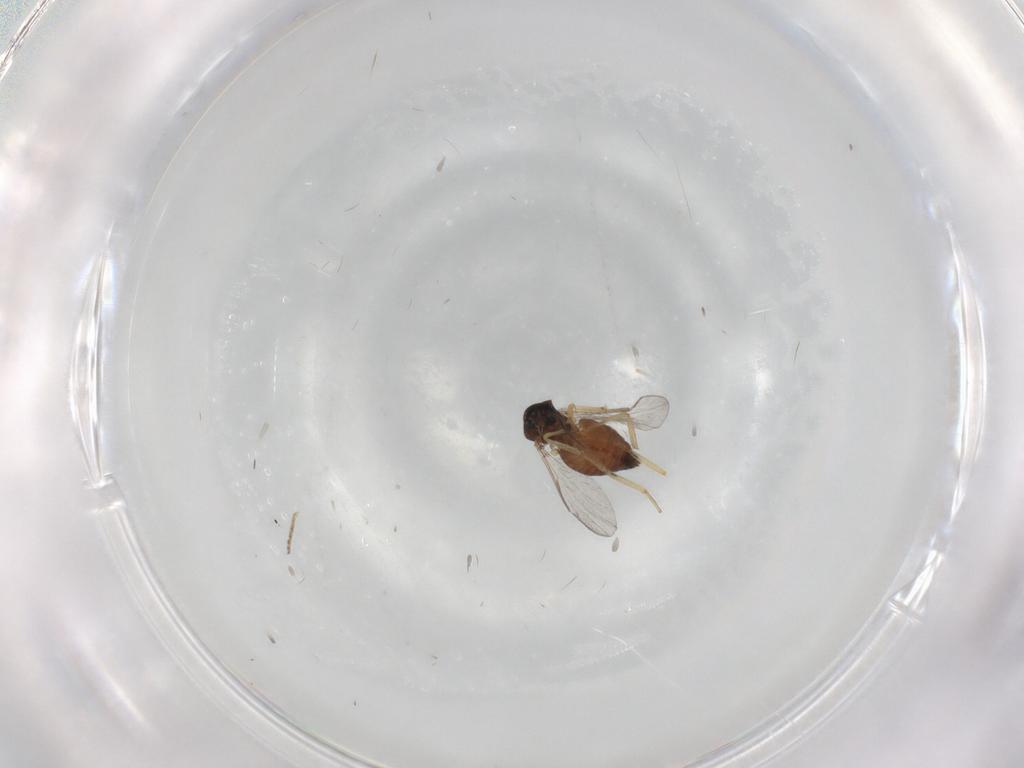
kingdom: Animalia
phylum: Arthropoda
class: Insecta
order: Diptera
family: Ceratopogonidae
